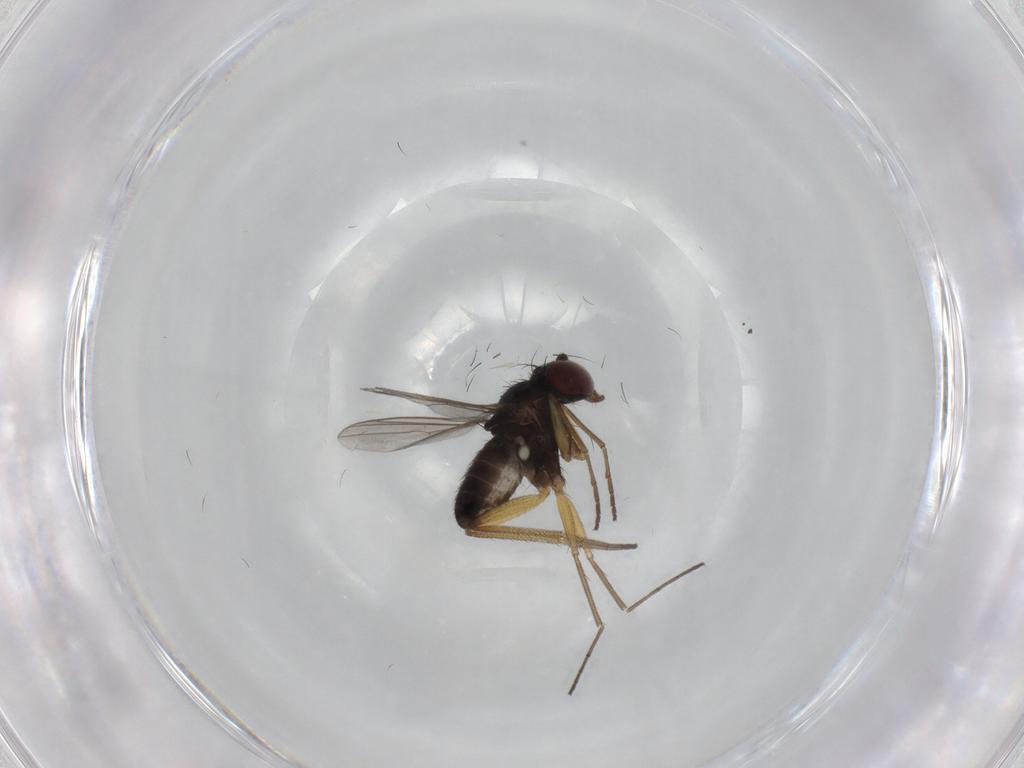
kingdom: Animalia
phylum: Arthropoda
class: Insecta
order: Diptera
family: Dolichopodidae
